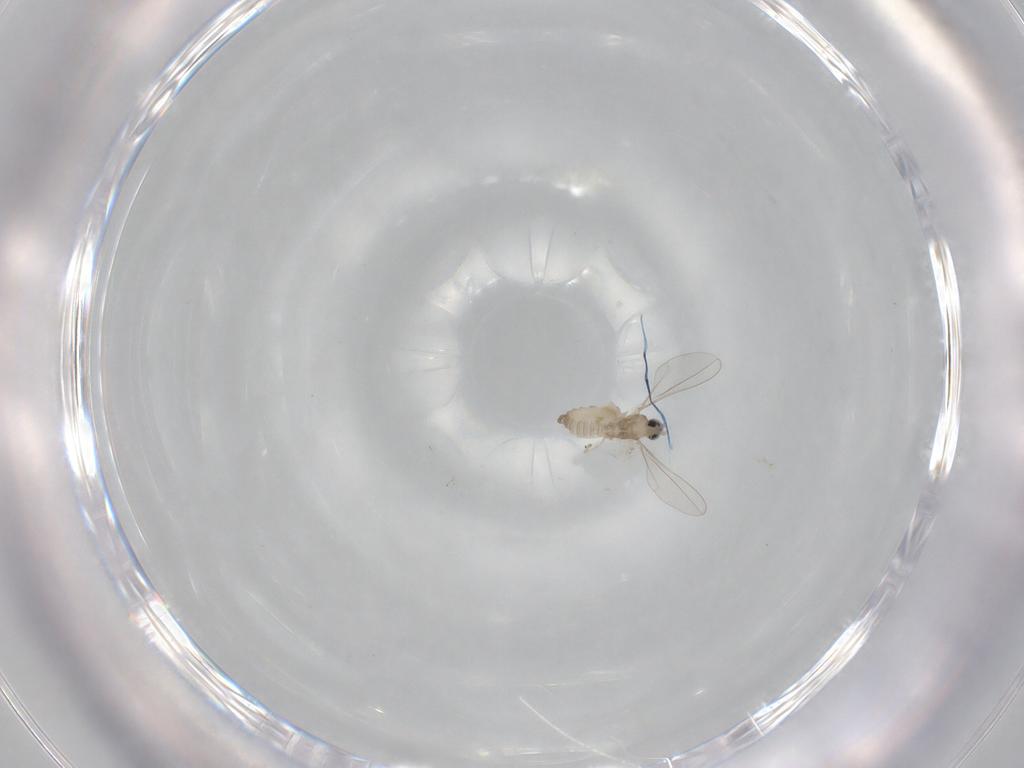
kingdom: Animalia
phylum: Arthropoda
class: Insecta
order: Diptera
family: Cecidomyiidae
